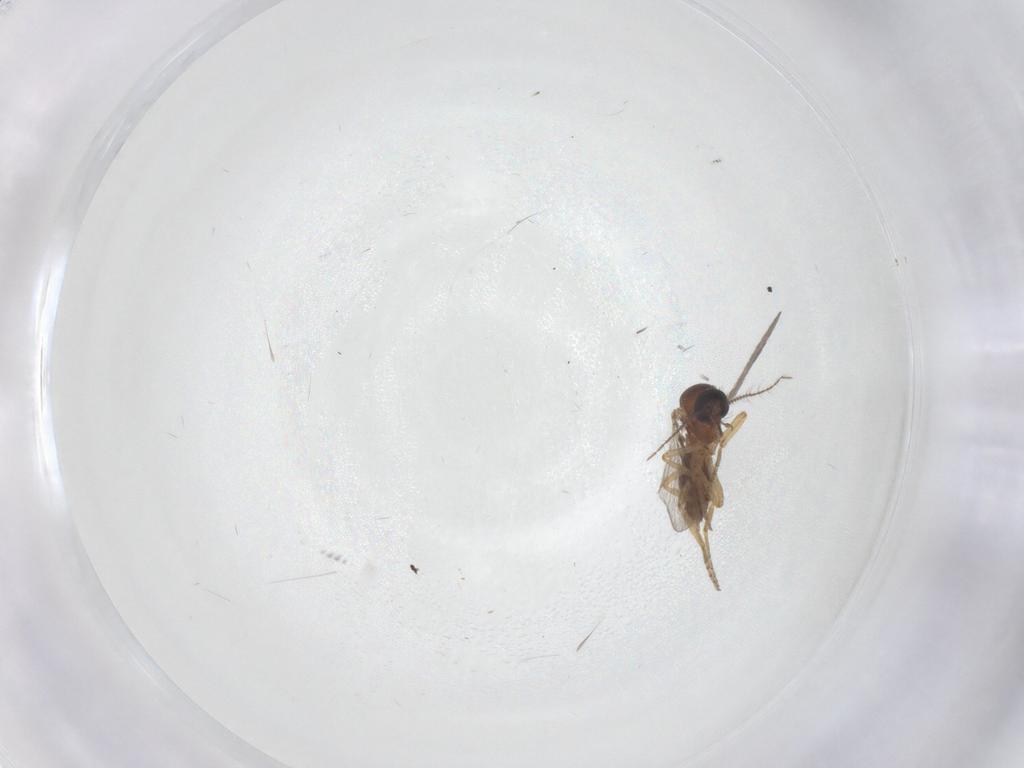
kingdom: Animalia
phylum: Arthropoda
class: Insecta
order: Diptera
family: Ceratopogonidae
